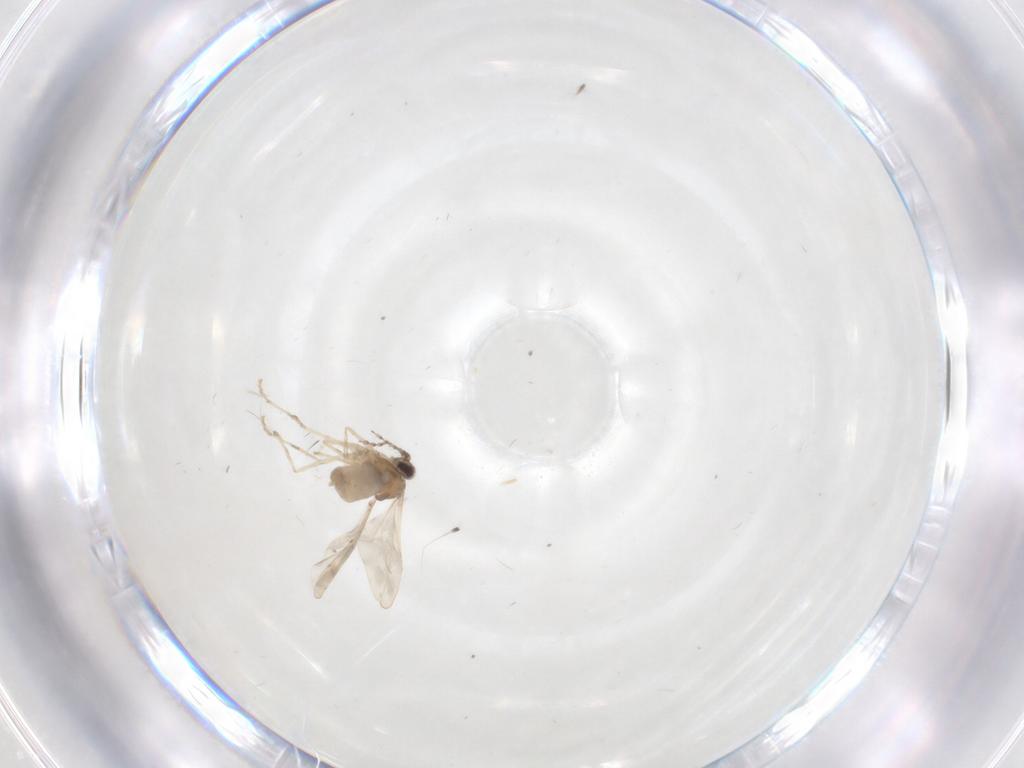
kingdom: Animalia
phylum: Arthropoda
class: Insecta
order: Diptera
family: Cecidomyiidae
